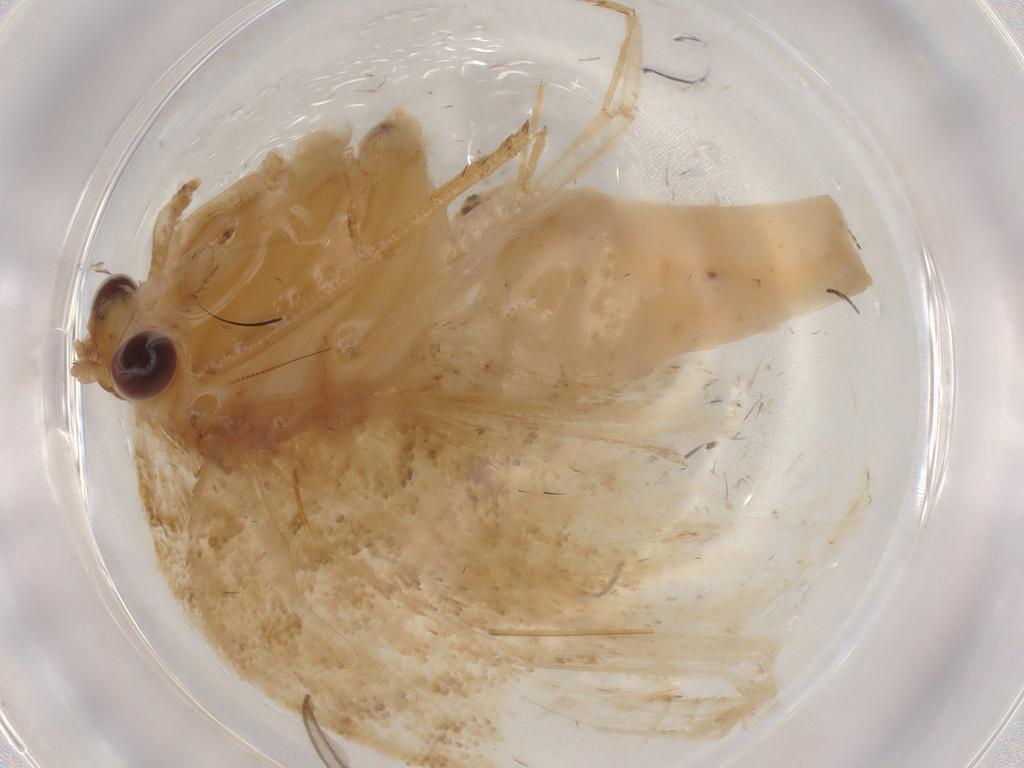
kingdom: Animalia
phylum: Arthropoda
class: Insecta
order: Lepidoptera
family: Tortricidae
